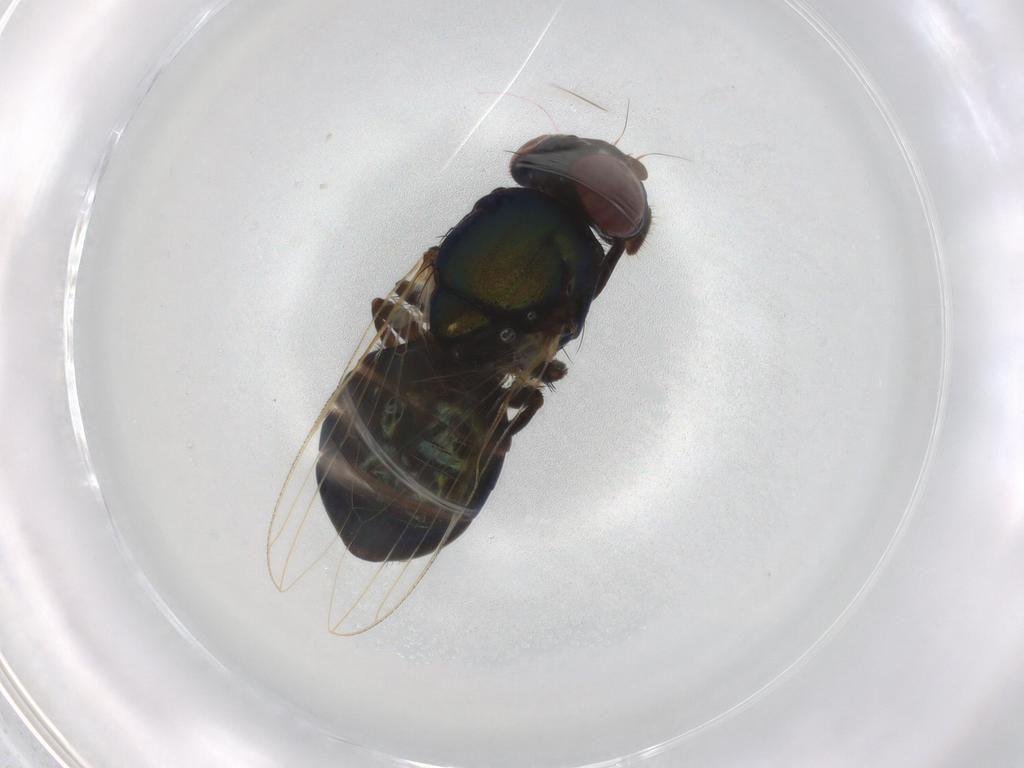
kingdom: Animalia
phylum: Arthropoda
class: Insecta
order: Diptera
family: Ulidiidae
